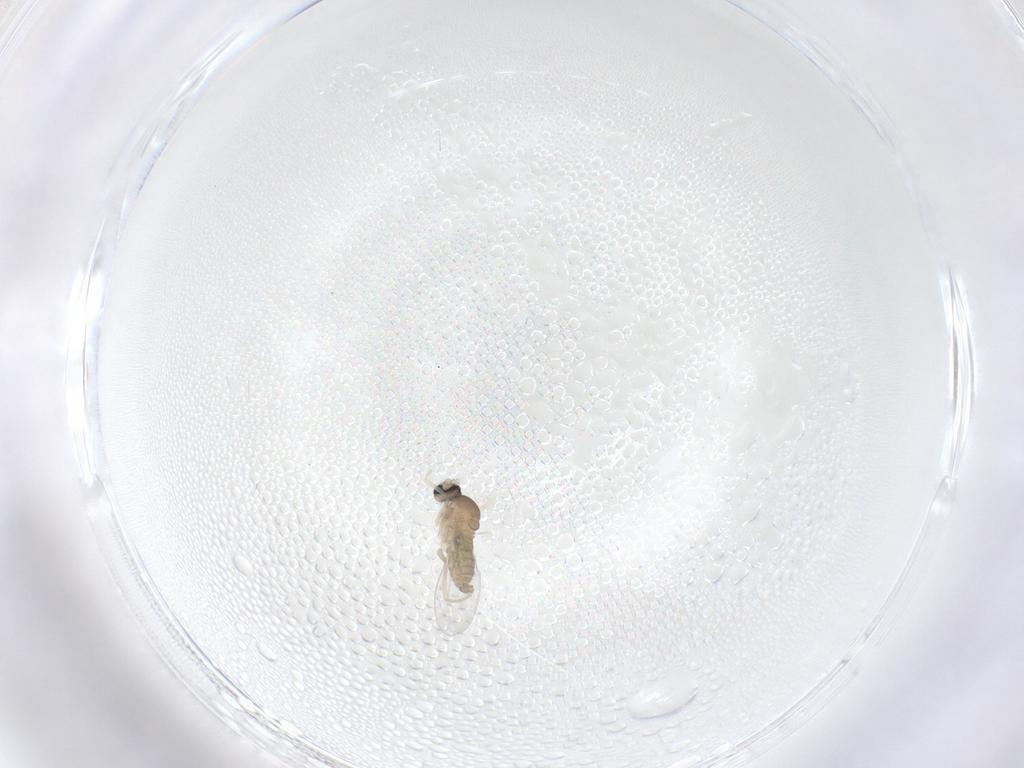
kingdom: Animalia
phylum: Arthropoda
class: Insecta
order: Diptera
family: Cecidomyiidae
